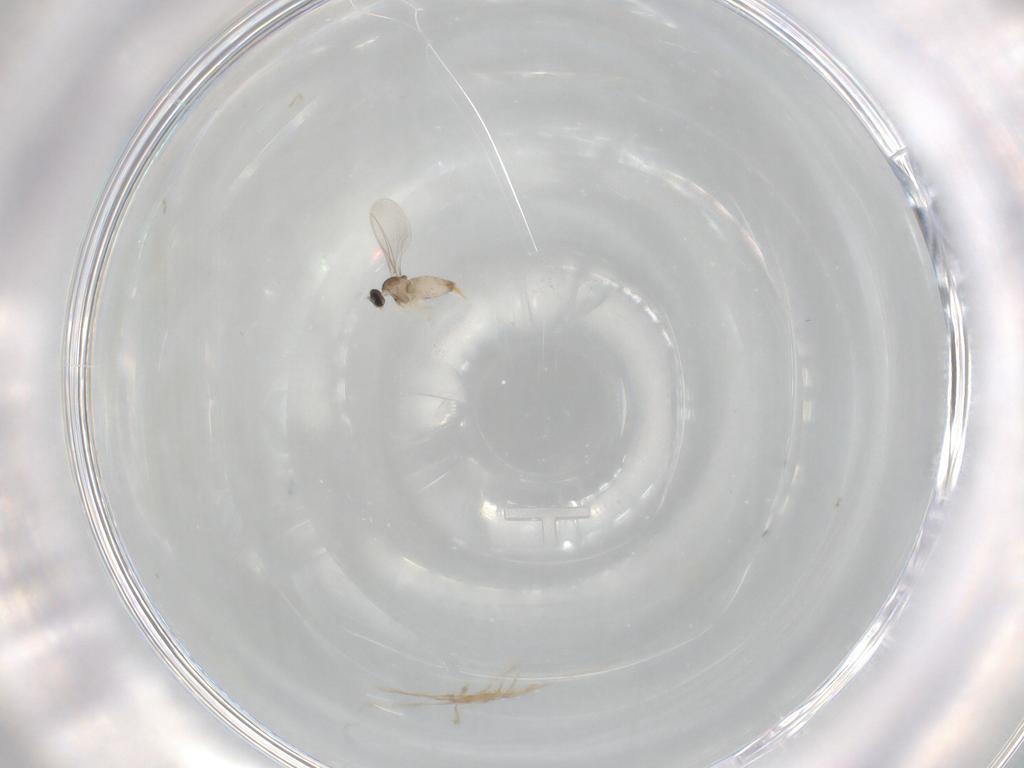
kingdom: Animalia
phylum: Arthropoda
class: Insecta
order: Diptera
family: Cecidomyiidae
